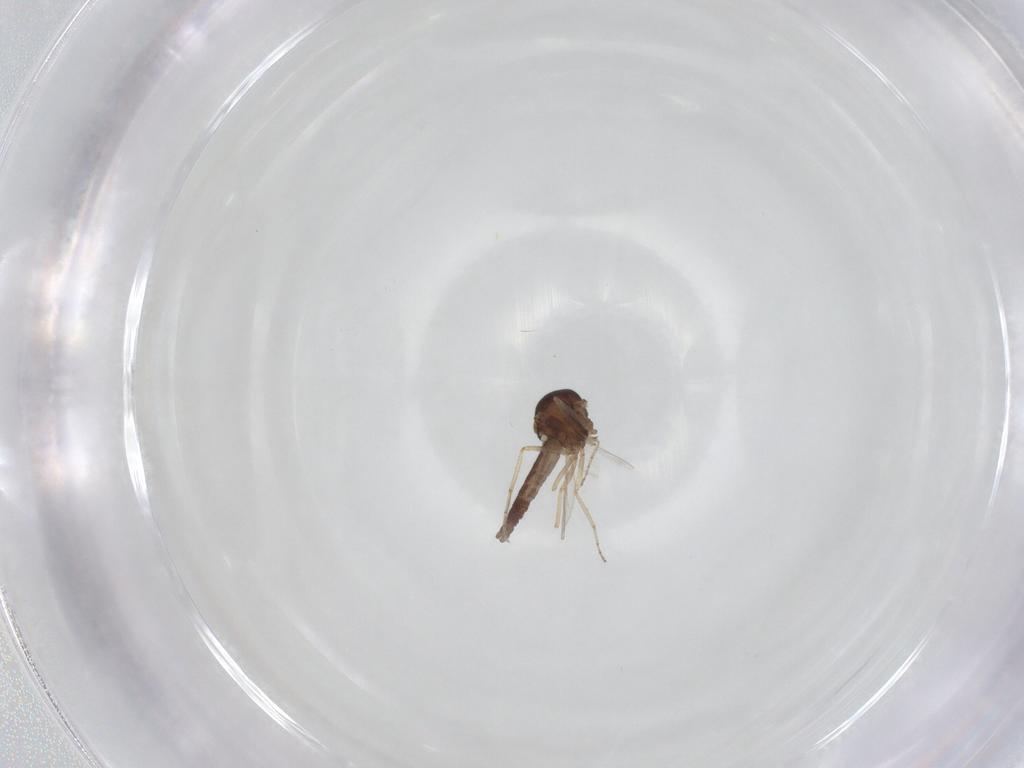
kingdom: Animalia
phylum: Arthropoda
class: Insecta
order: Diptera
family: Ceratopogonidae
